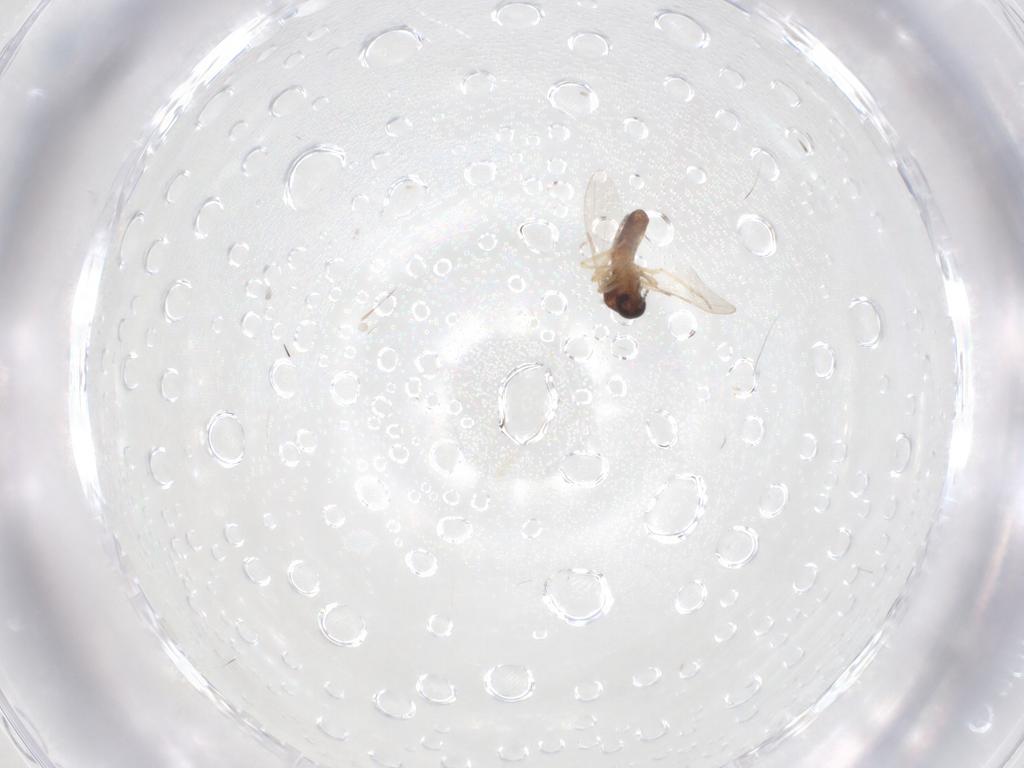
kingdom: Animalia
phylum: Arthropoda
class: Insecta
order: Diptera
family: Ceratopogonidae
